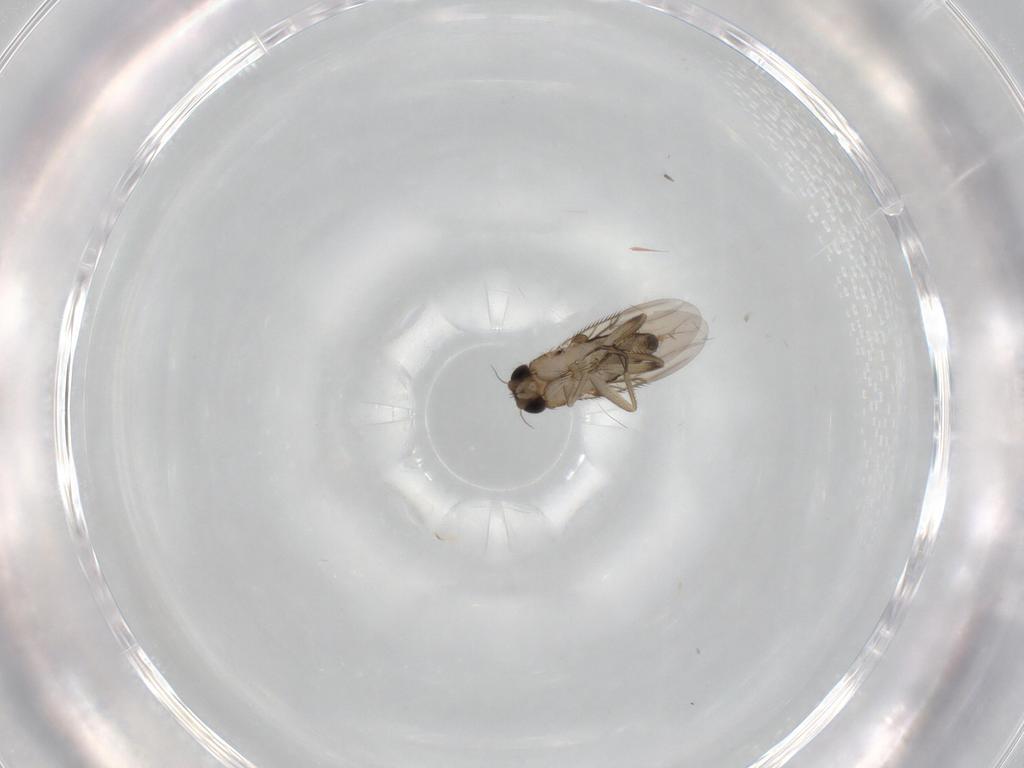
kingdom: Animalia
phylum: Arthropoda
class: Insecta
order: Diptera
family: Phoridae
